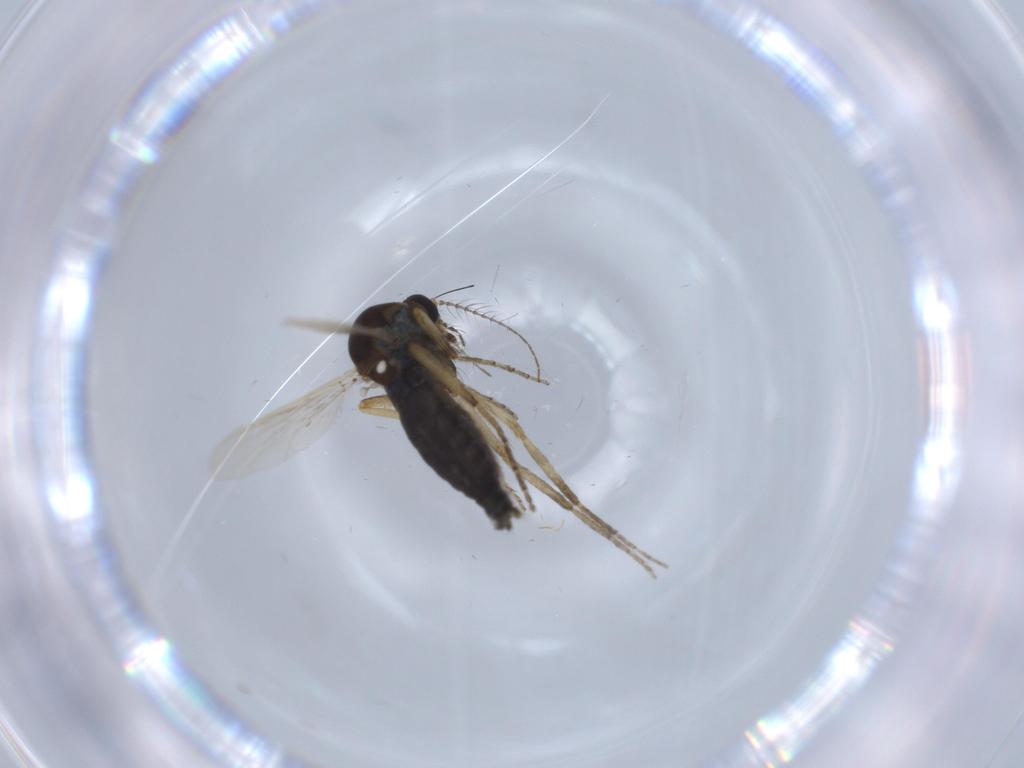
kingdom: Animalia
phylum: Arthropoda
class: Insecta
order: Diptera
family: Ceratopogonidae
